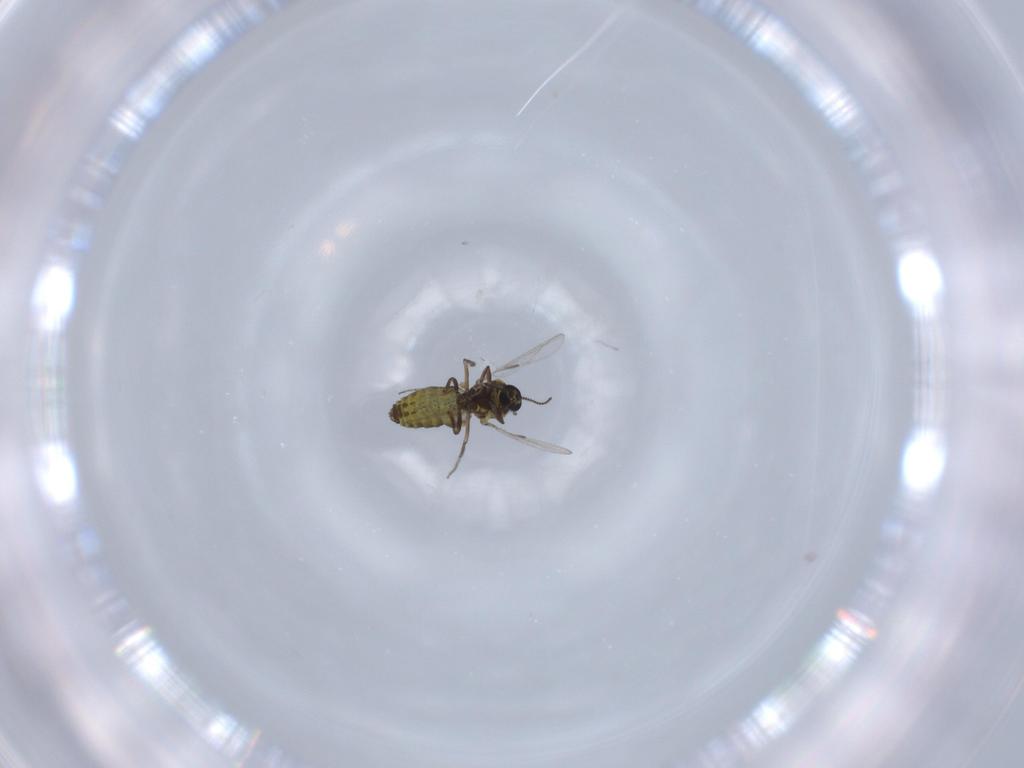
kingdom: Animalia
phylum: Arthropoda
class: Insecta
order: Diptera
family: Ceratopogonidae
